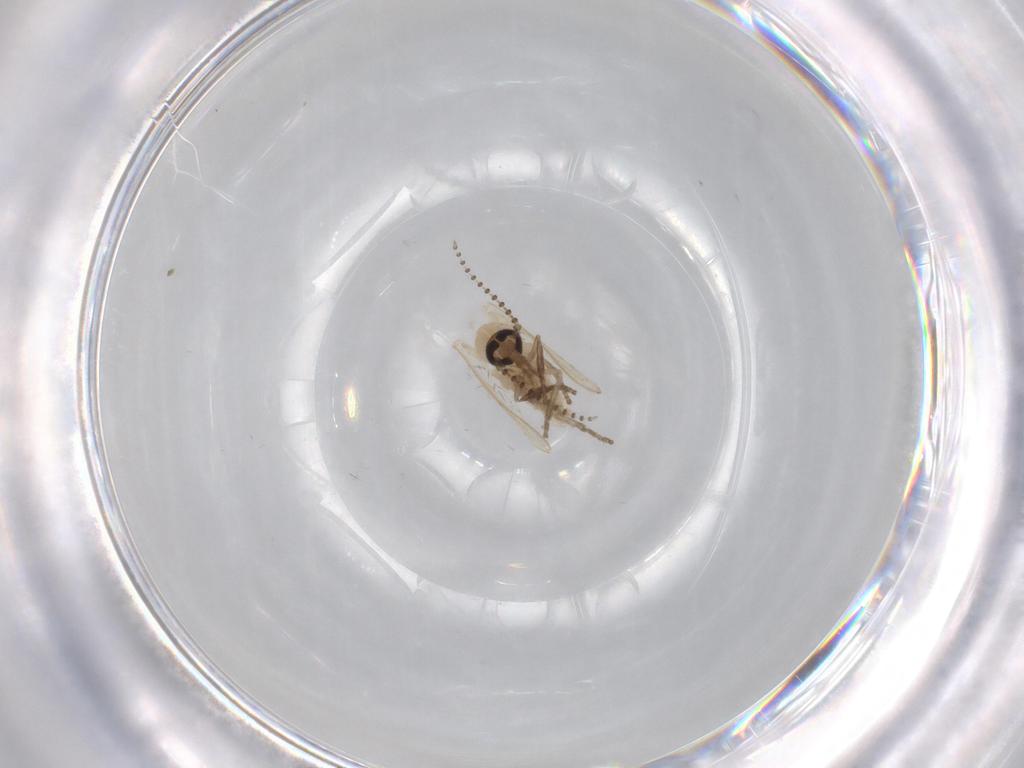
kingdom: Animalia
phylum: Arthropoda
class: Insecta
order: Diptera
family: Psychodidae
